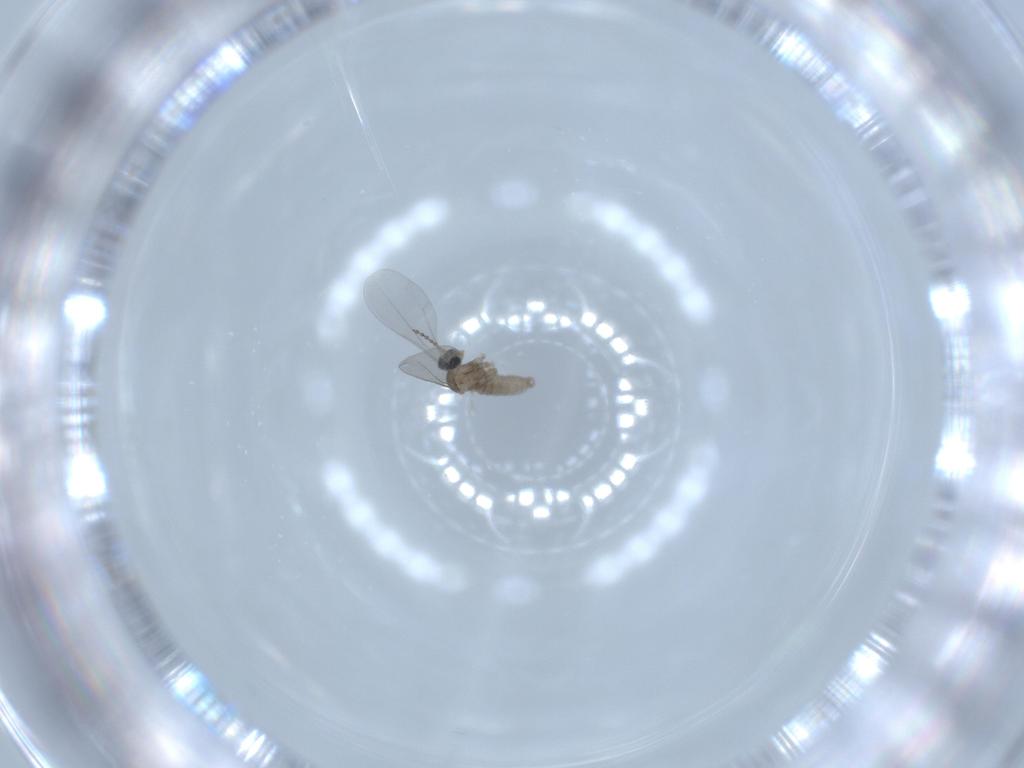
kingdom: Animalia
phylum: Arthropoda
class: Insecta
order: Diptera
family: Cecidomyiidae
